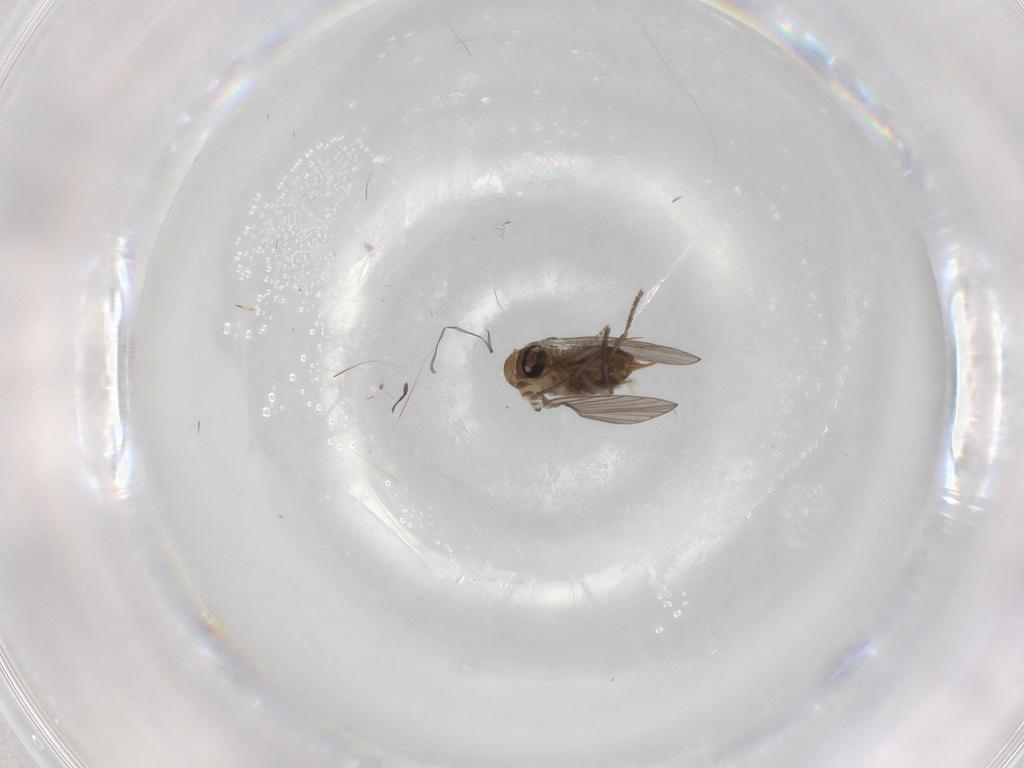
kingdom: Animalia
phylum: Arthropoda
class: Insecta
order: Diptera
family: Psychodidae
